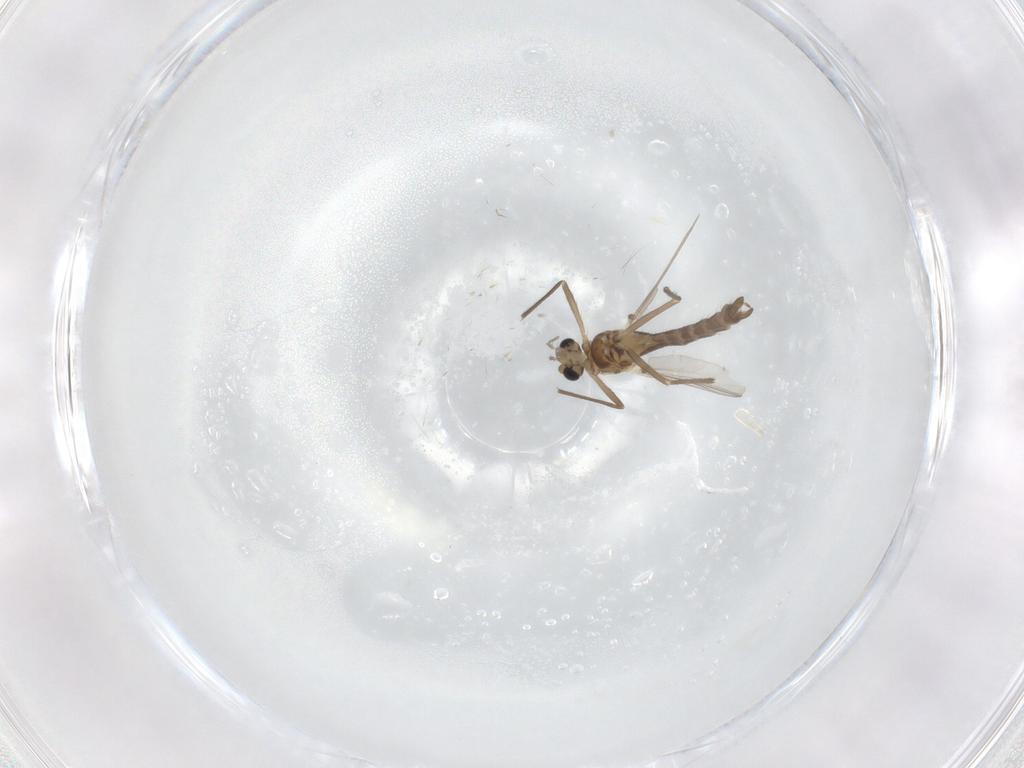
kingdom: Animalia
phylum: Arthropoda
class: Insecta
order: Diptera
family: Chironomidae
